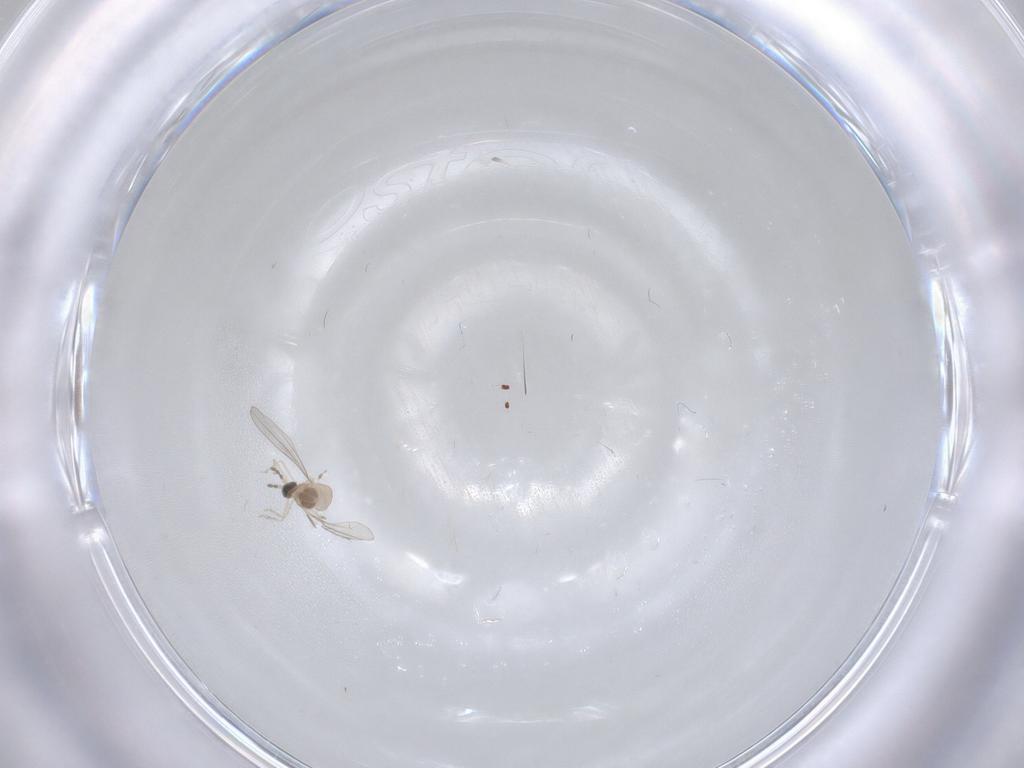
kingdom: Animalia
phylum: Arthropoda
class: Insecta
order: Diptera
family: Cecidomyiidae
